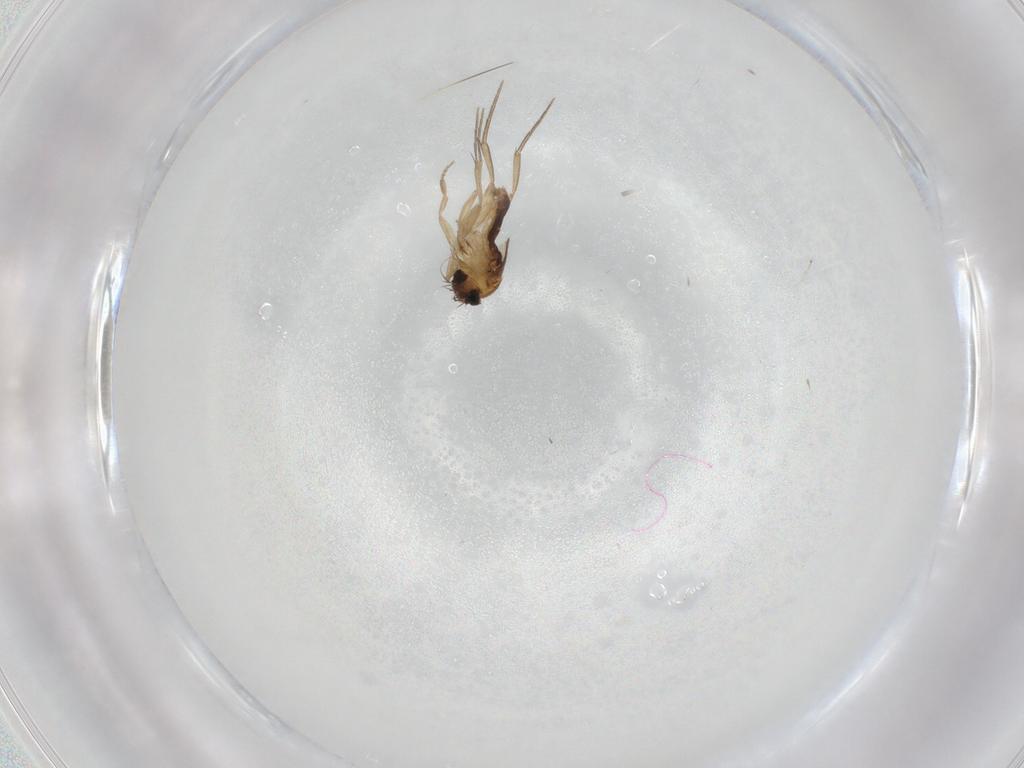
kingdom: Animalia
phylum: Arthropoda
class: Insecta
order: Diptera
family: Phoridae
